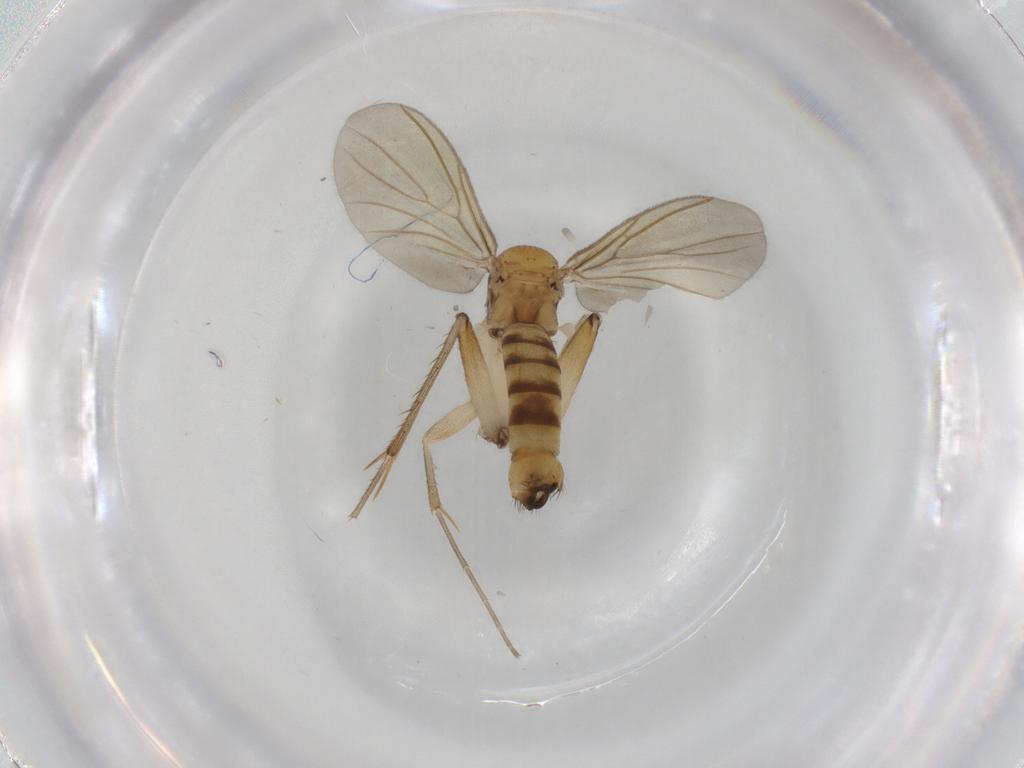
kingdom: Animalia
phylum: Arthropoda
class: Insecta
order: Diptera
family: Mycetophilidae
